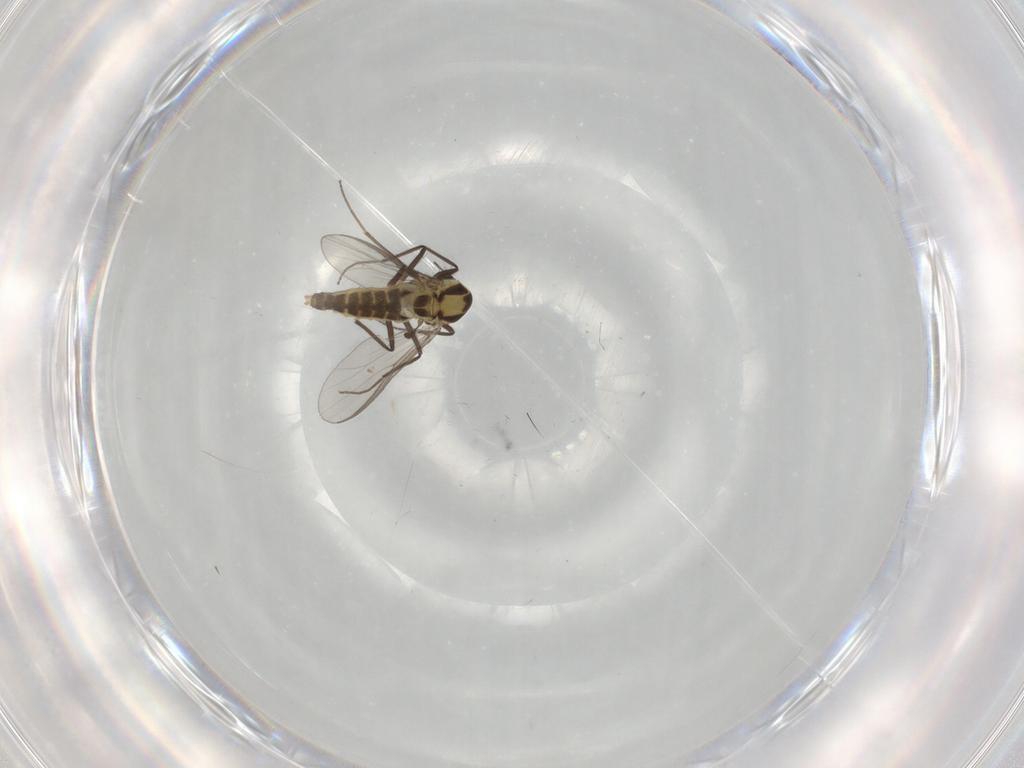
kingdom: Animalia
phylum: Arthropoda
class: Insecta
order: Diptera
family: Chironomidae
